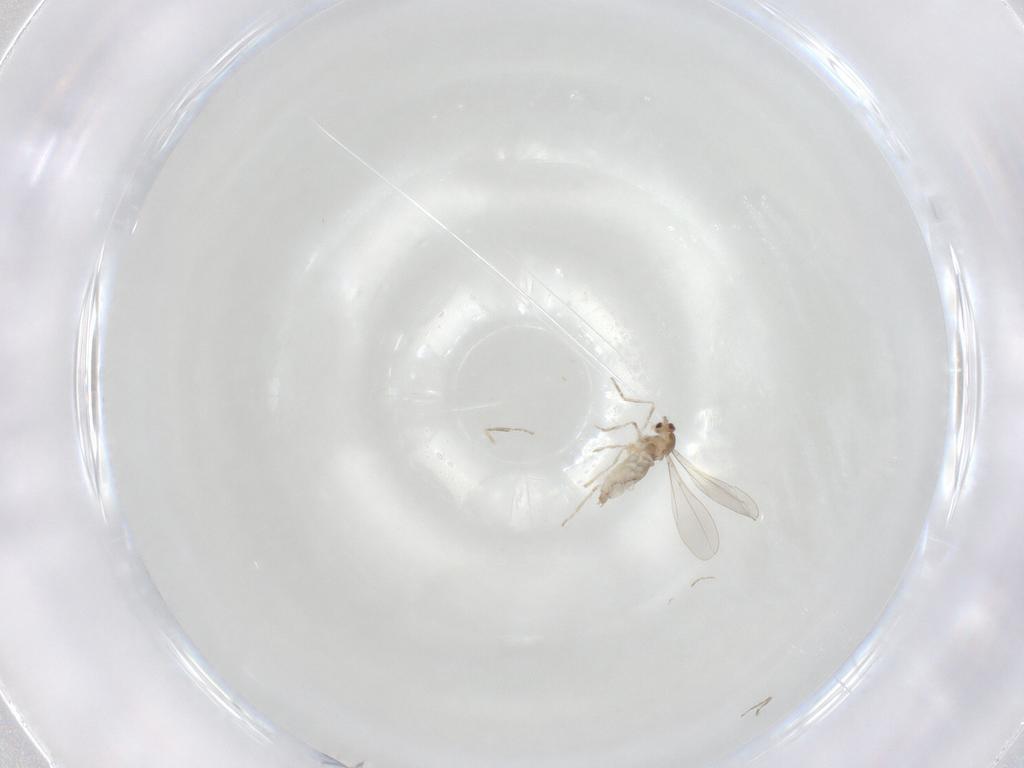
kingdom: Animalia
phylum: Arthropoda
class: Insecta
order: Diptera
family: Cecidomyiidae
